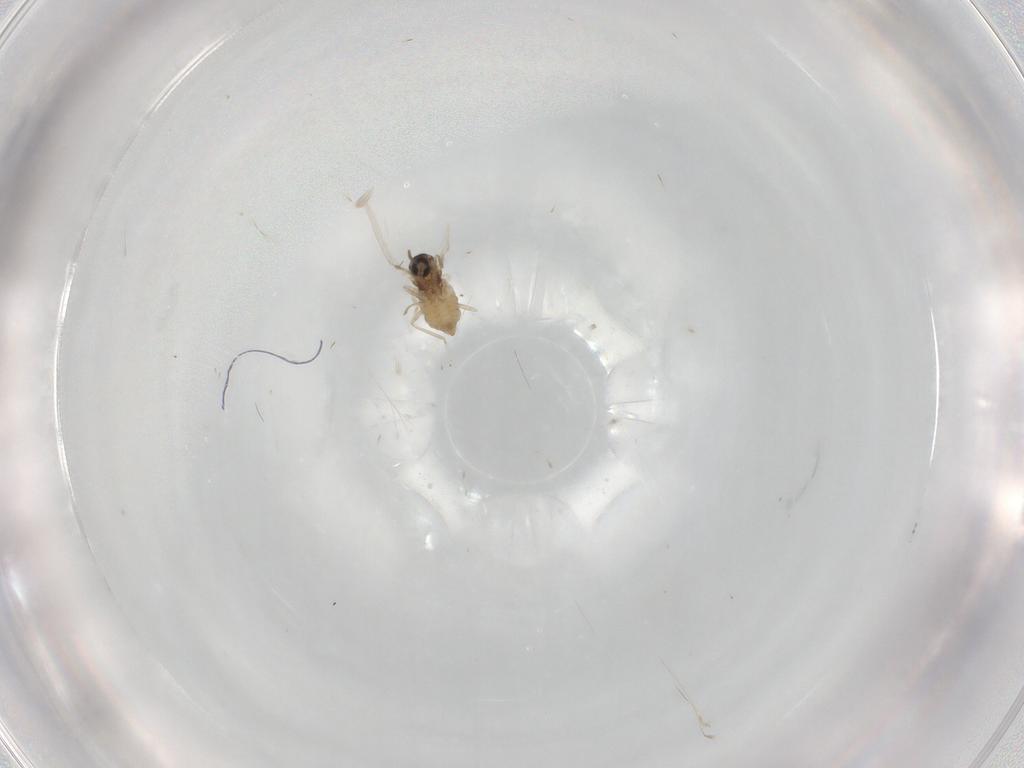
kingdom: Animalia
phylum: Arthropoda
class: Insecta
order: Diptera
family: Cecidomyiidae
